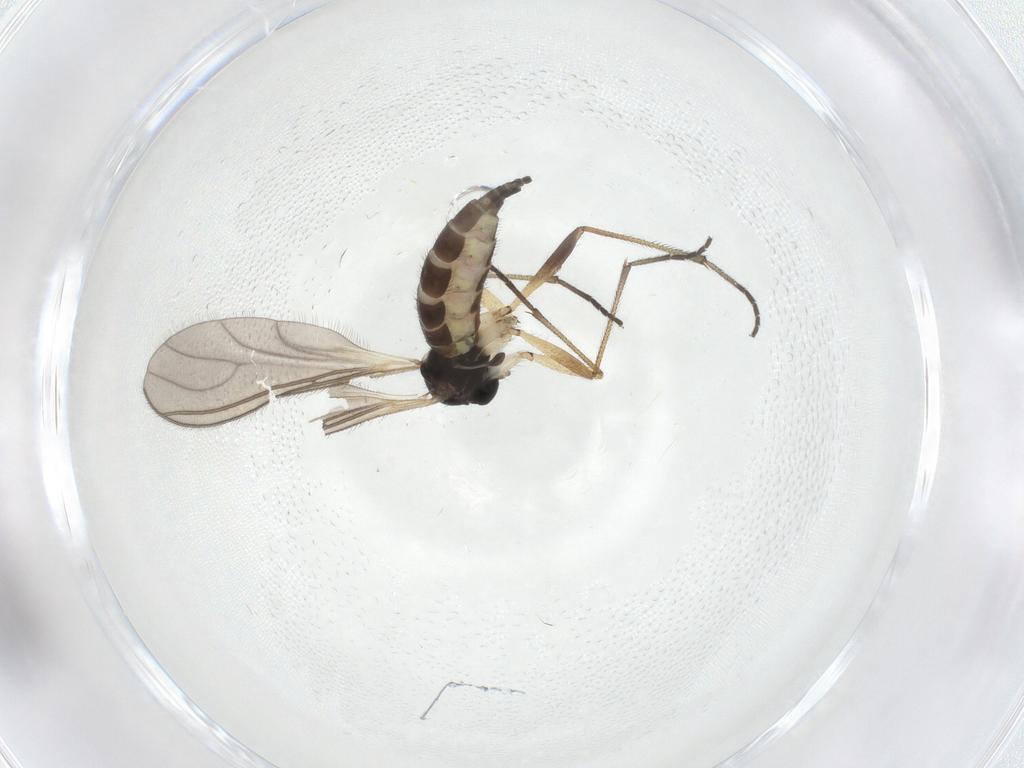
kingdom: Animalia
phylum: Arthropoda
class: Insecta
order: Diptera
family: Sciaridae
